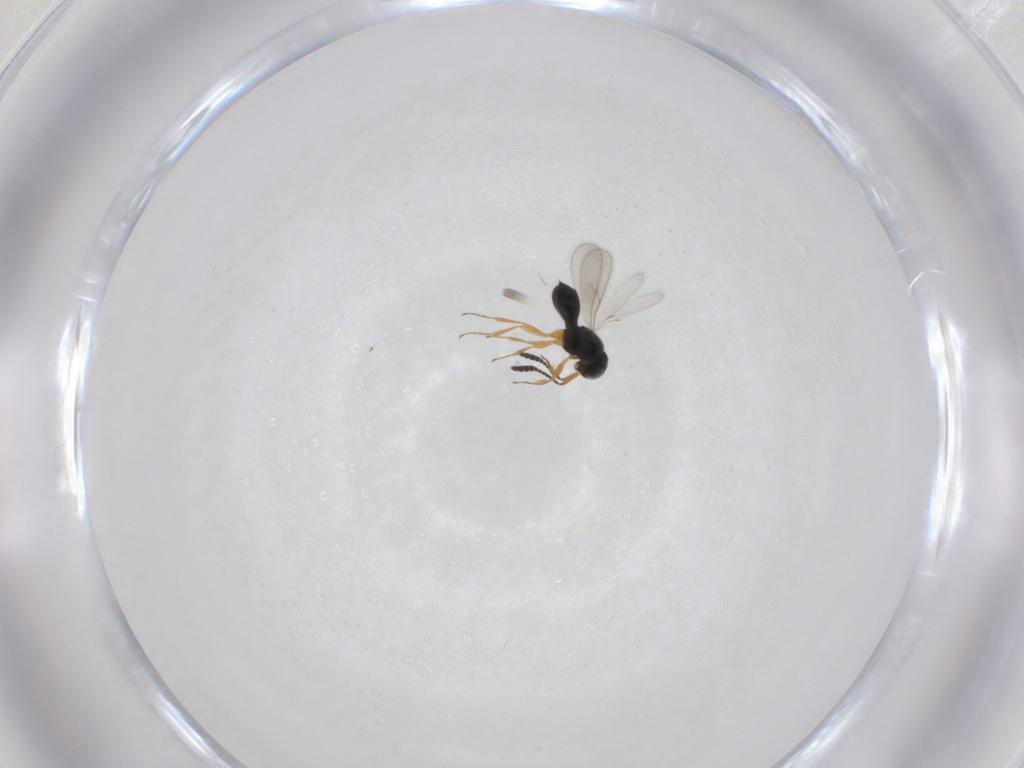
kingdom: Animalia
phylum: Arthropoda
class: Insecta
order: Hymenoptera
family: Scelionidae
